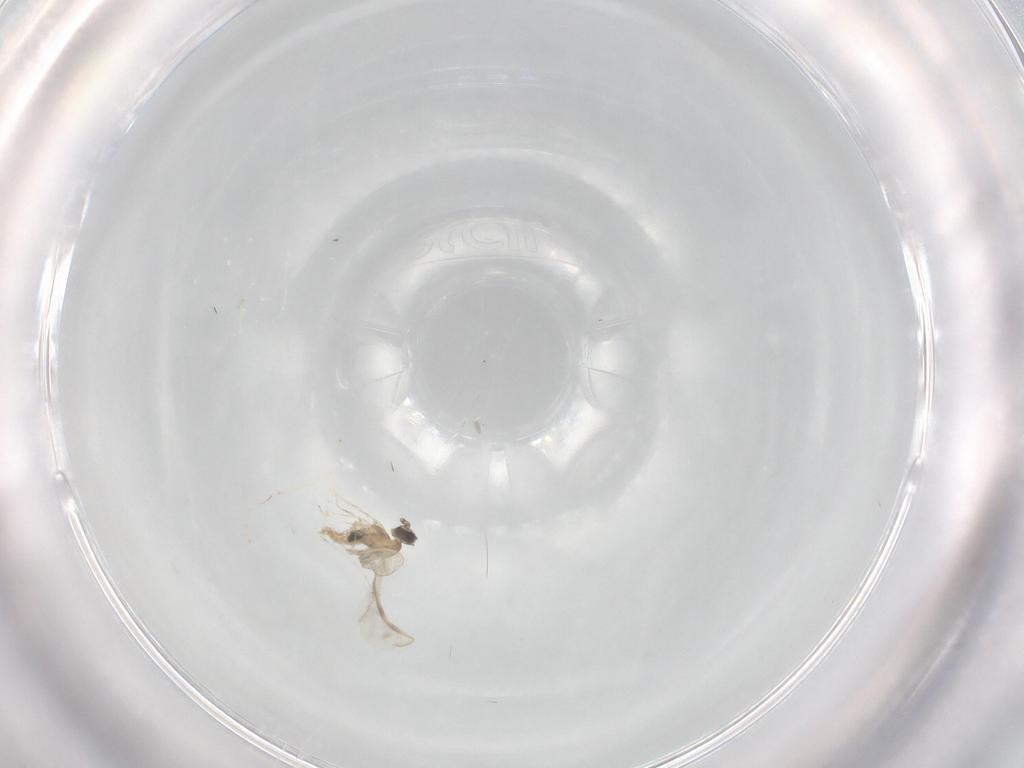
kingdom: Animalia
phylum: Arthropoda
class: Insecta
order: Diptera
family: Cecidomyiidae
